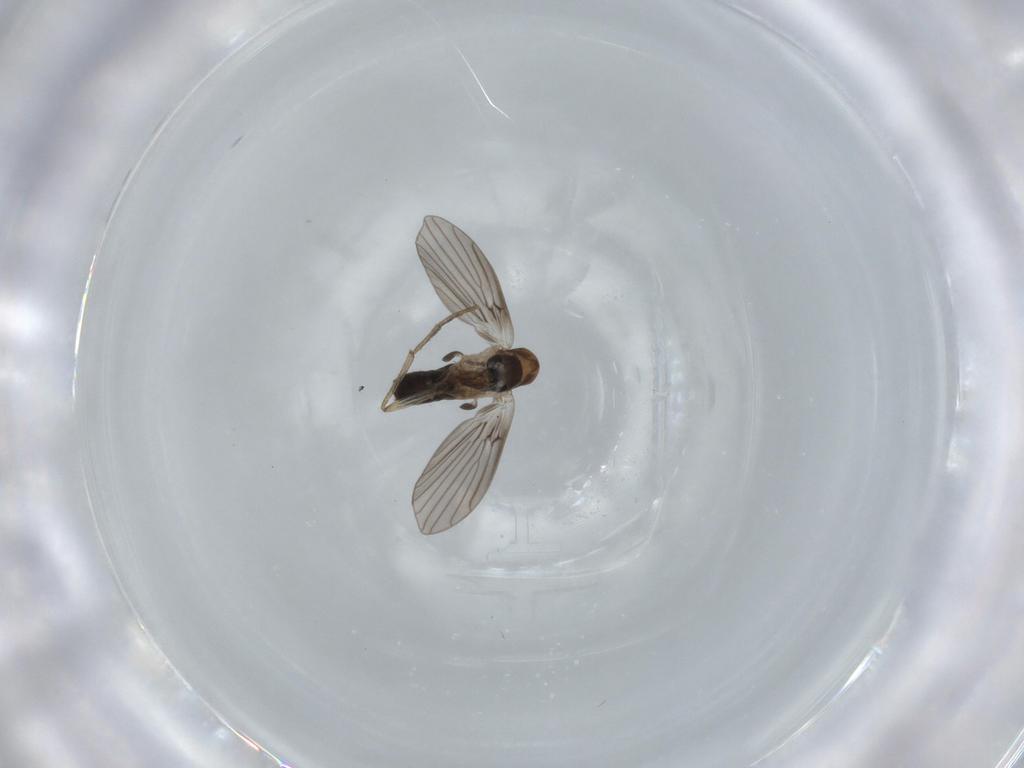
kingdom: Animalia
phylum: Arthropoda
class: Insecta
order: Diptera
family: Psychodidae
